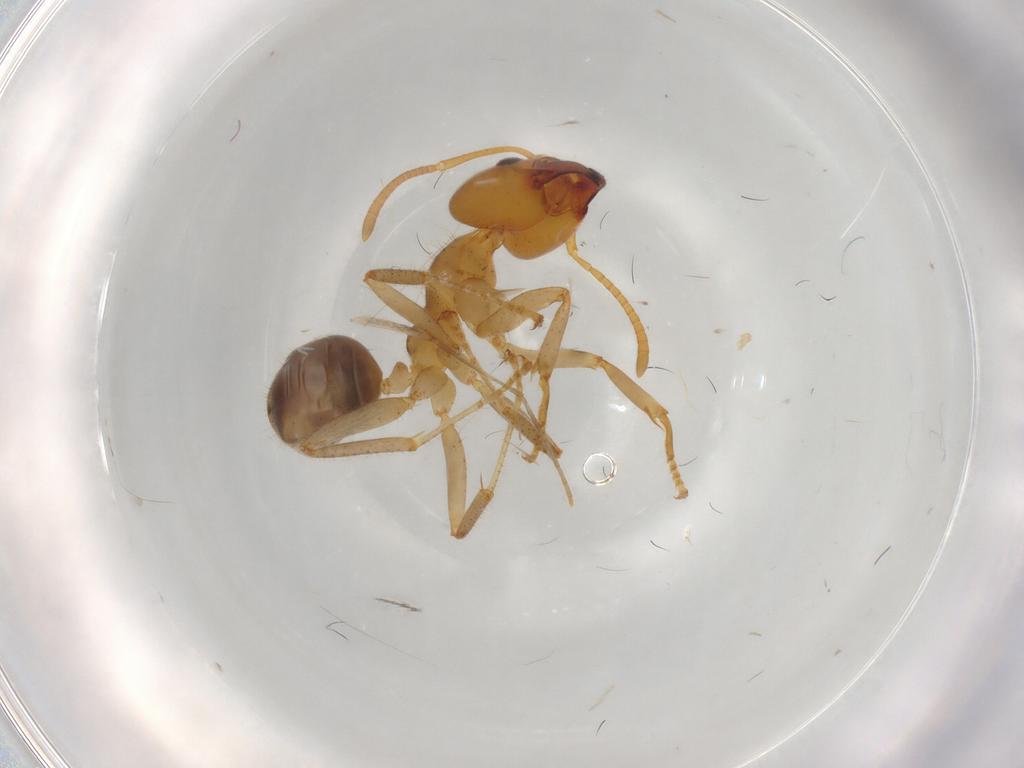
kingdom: Animalia
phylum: Arthropoda
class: Insecta
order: Hymenoptera
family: Formicidae
